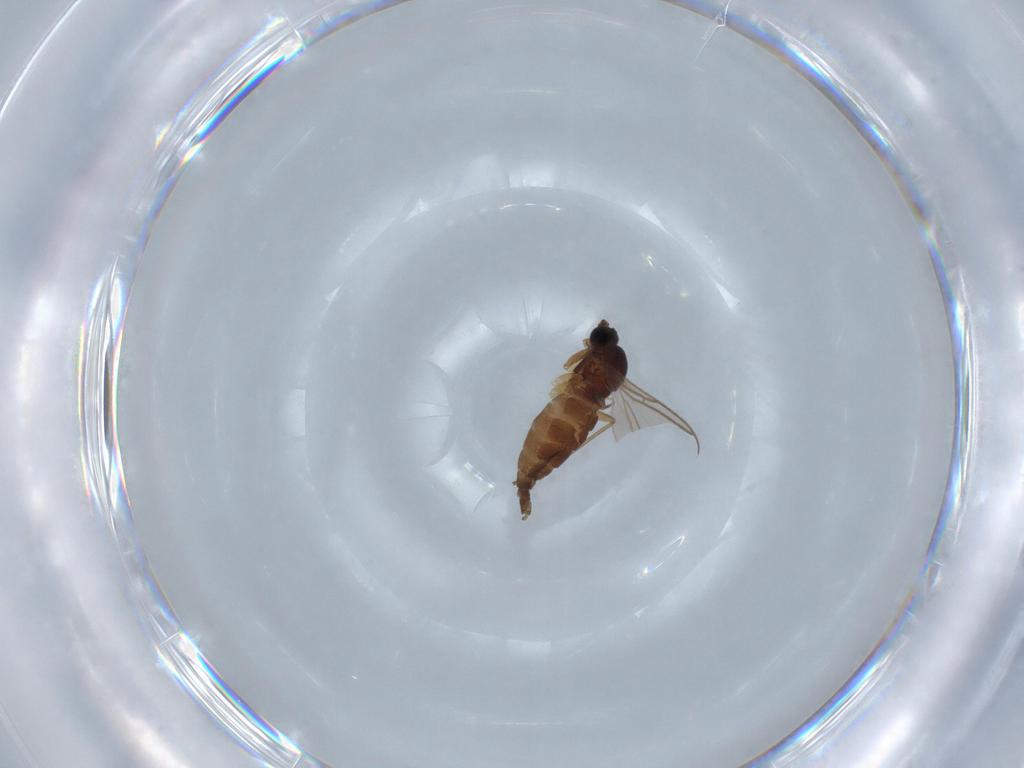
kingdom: Animalia
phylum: Arthropoda
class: Insecta
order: Diptera
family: Sciaridae
